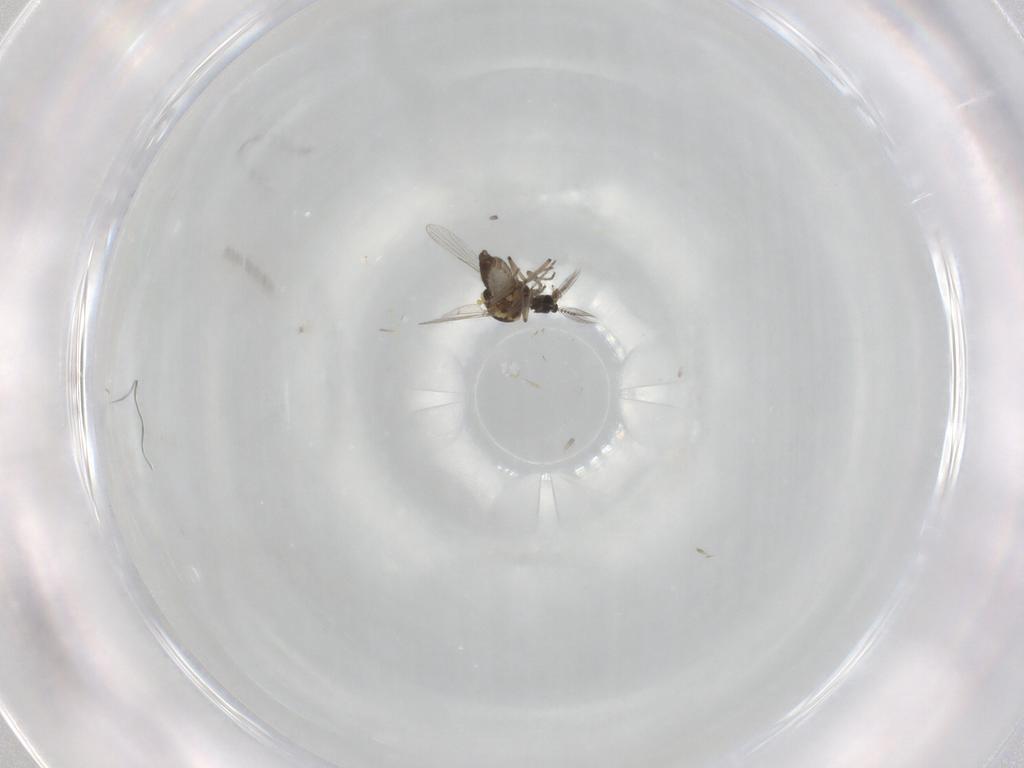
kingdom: Animalia
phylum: Arthropoda
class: Insecta
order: Diptera
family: Ceratopogonidae
